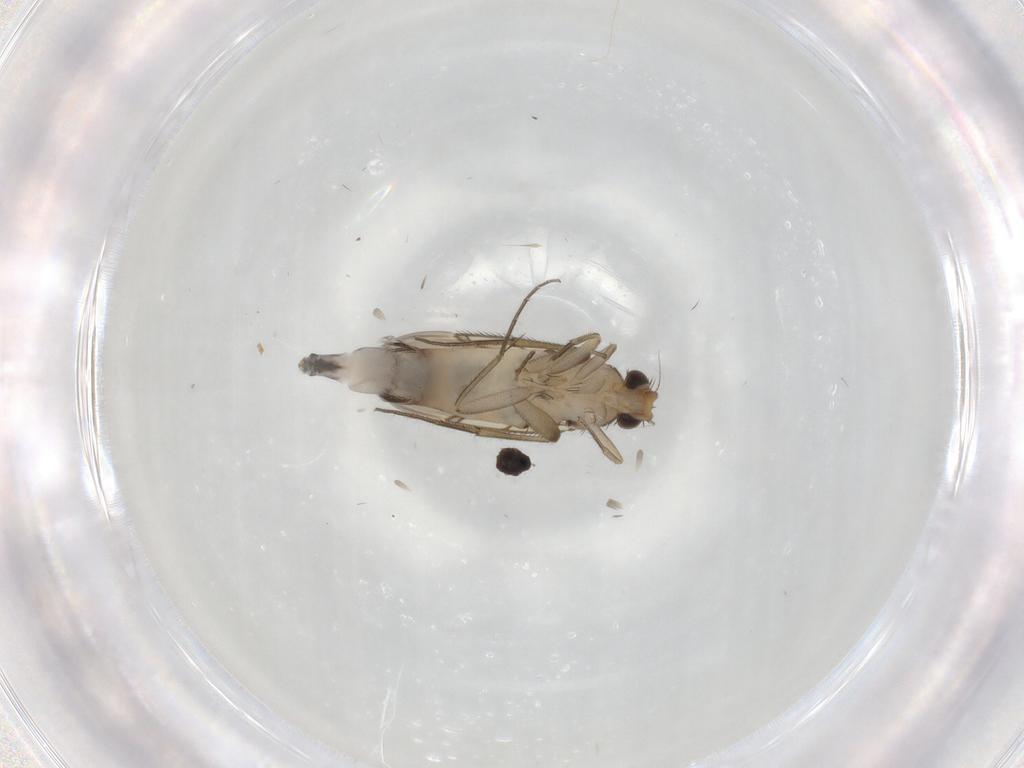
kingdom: Animalia
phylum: Arthropoda
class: Insecta
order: Diptera
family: Phoridae
